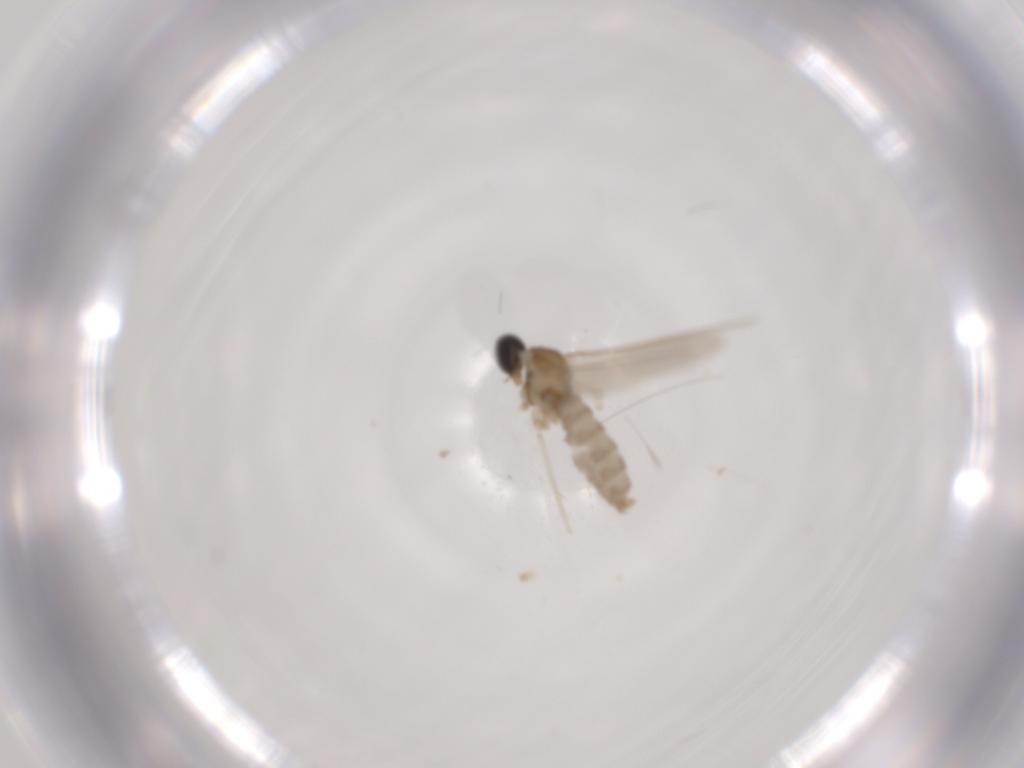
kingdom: Animalia
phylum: Arthropoda
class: Insecta
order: Diptera
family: Cecidomyiidae
